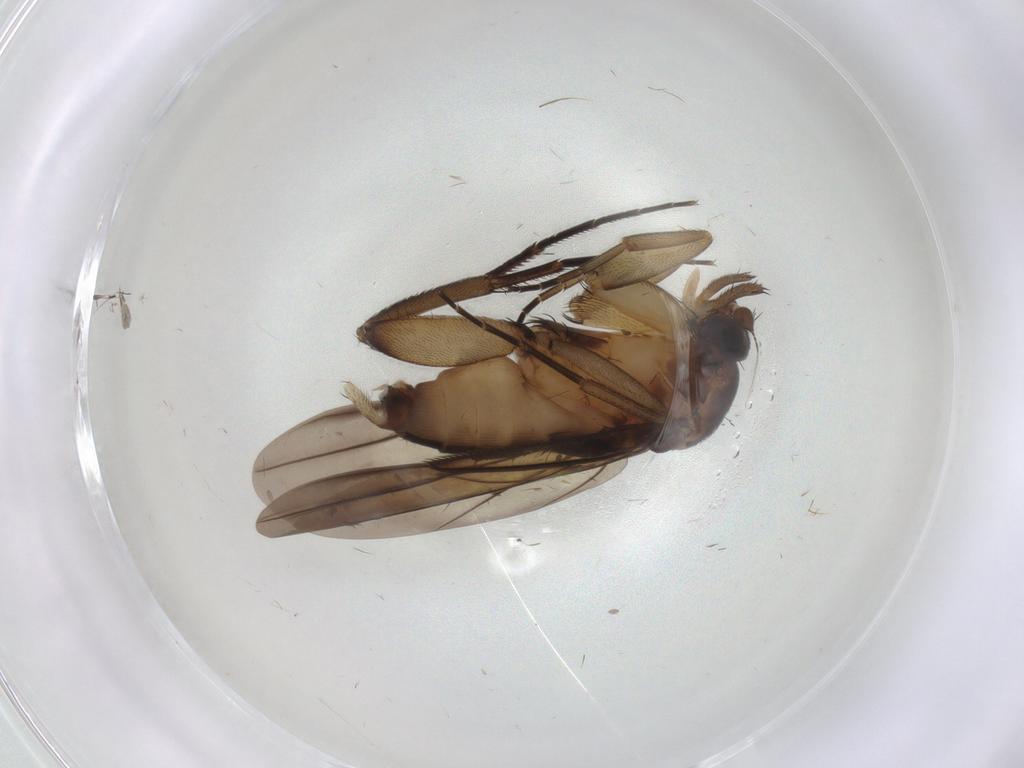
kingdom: Animalia
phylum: Arthropoda
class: Insecta
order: Diptera
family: Phoridae
